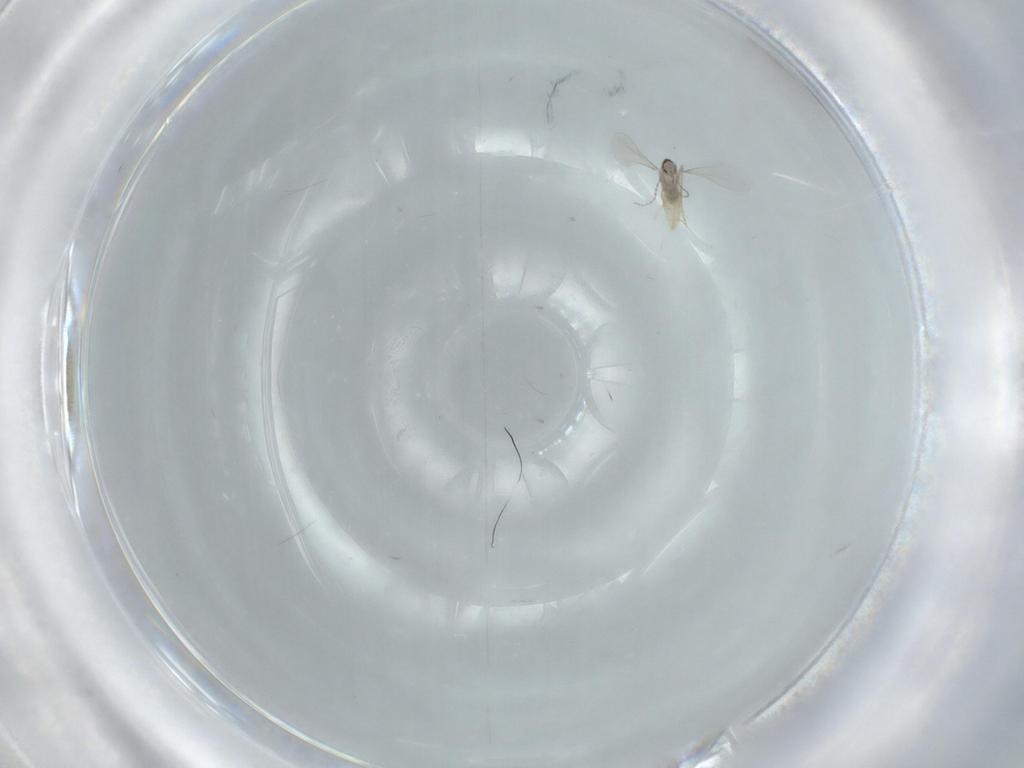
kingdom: Animalia
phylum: Arthropoda
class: Insecta
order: Diptera
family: Cecidomyiidae
